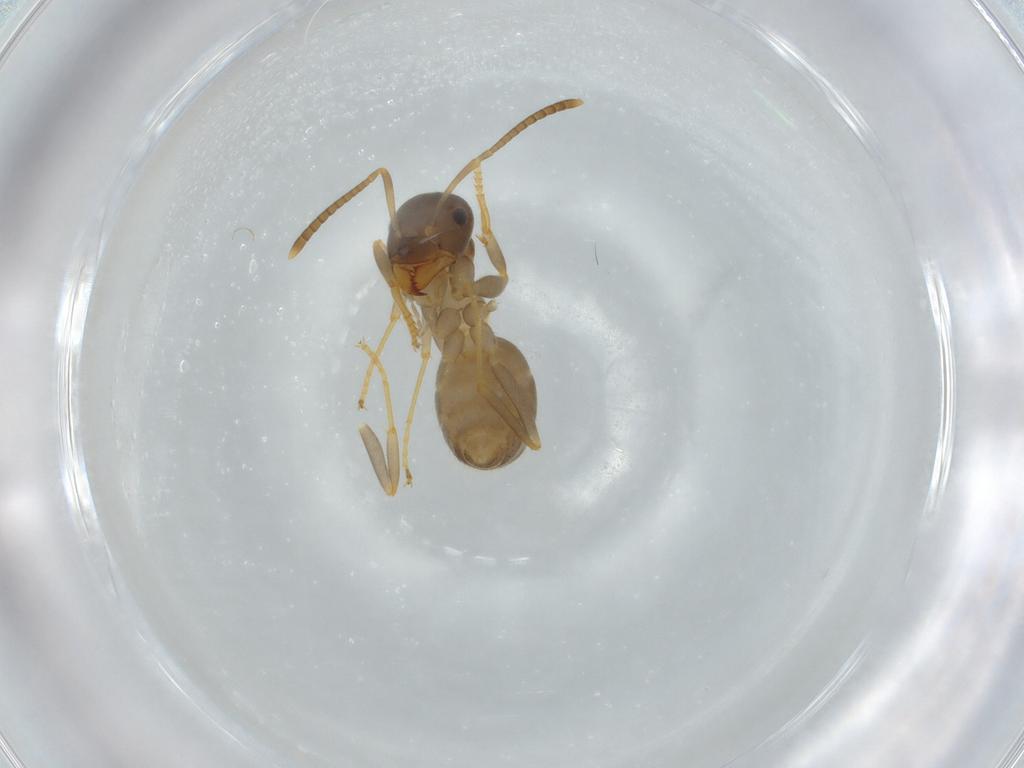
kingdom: Animalia
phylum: Arthropoda
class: Insecta
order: Hymenoptera
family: Formicidae
